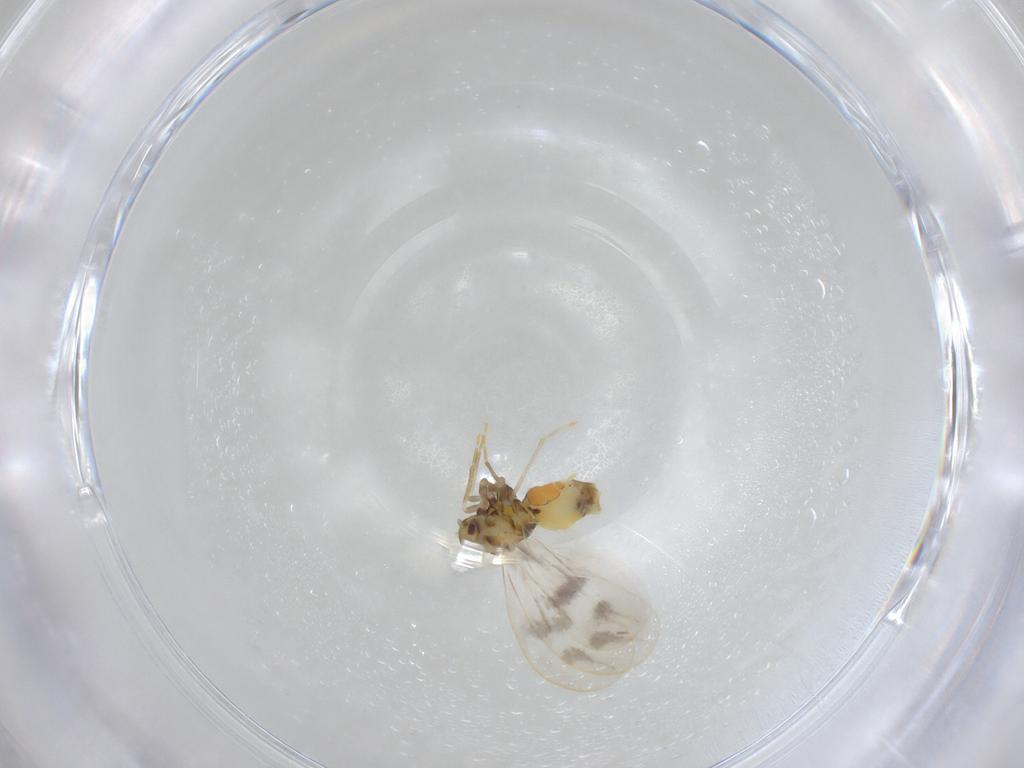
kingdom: Animalia
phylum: Arthropoda
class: Insecta
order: Hemiptera
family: Aleyrodidae
